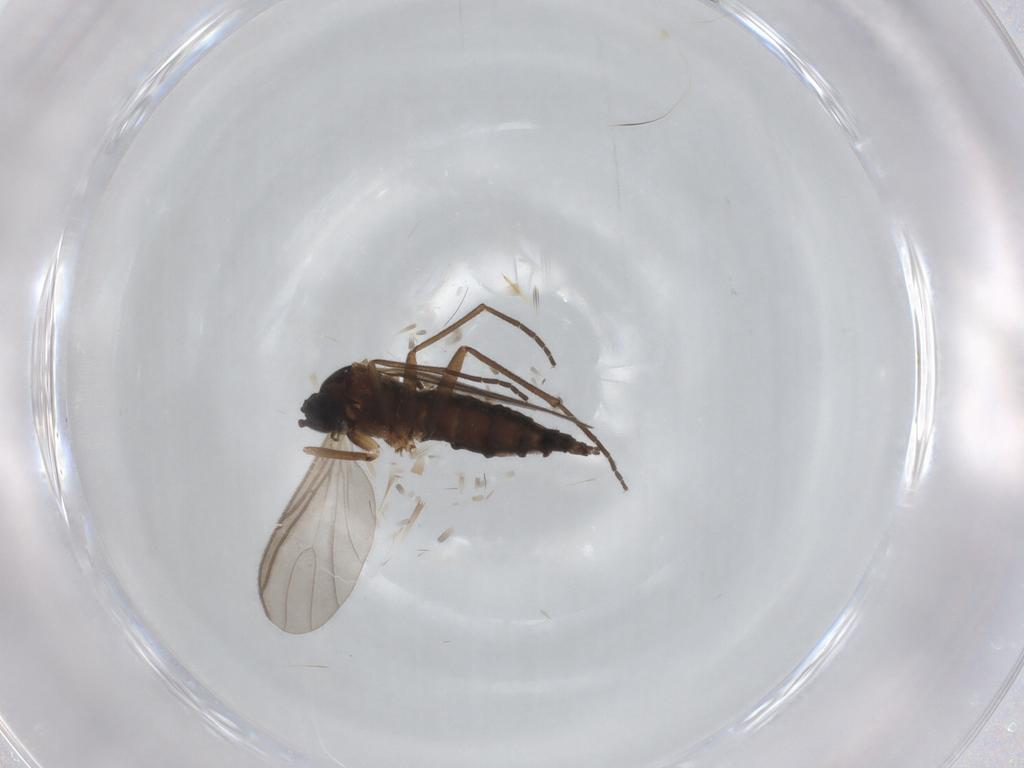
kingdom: Animalia
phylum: Arthropoda
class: Insecta
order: Diptera
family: Sciaridae
